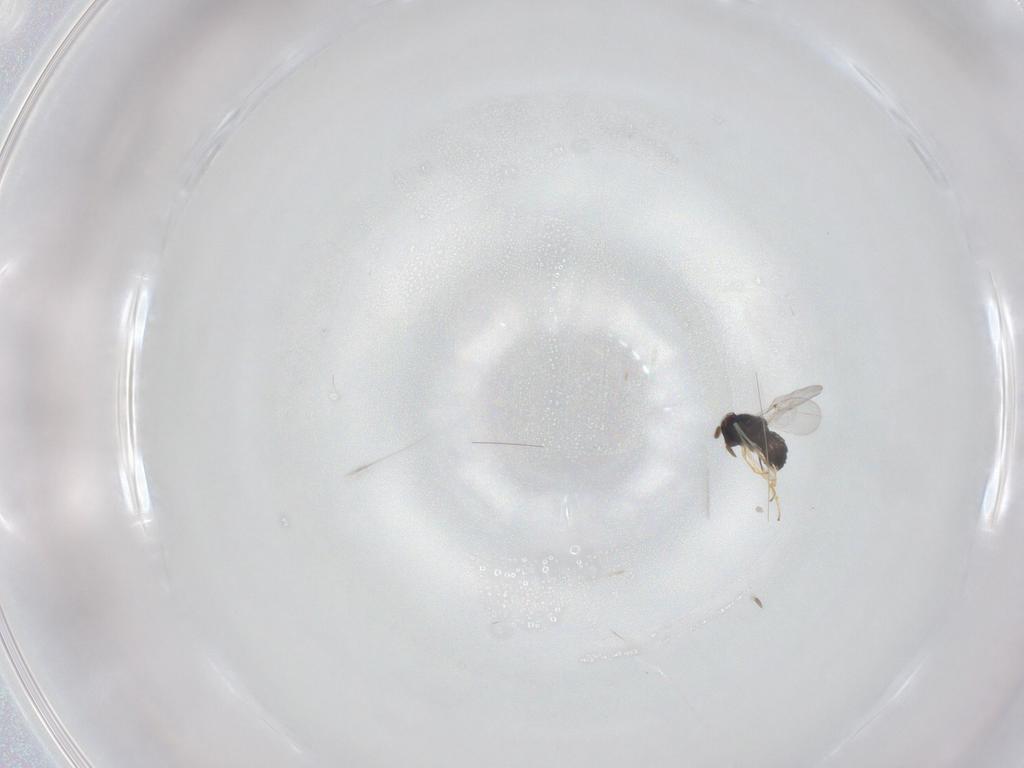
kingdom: Animalia
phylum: Arthropoda
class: Insecta
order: Hymenoptera
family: Encyrtidae
